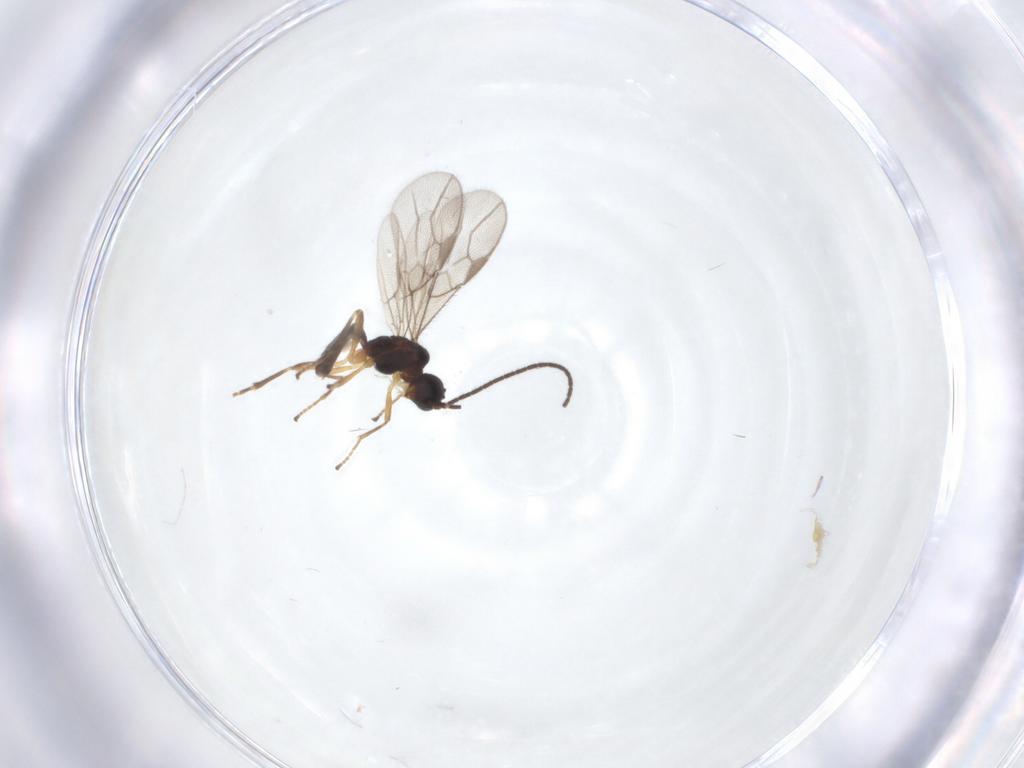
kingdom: Animalia
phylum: Arthropoda
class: Insecta
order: Hymenoptera
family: Braconidae
